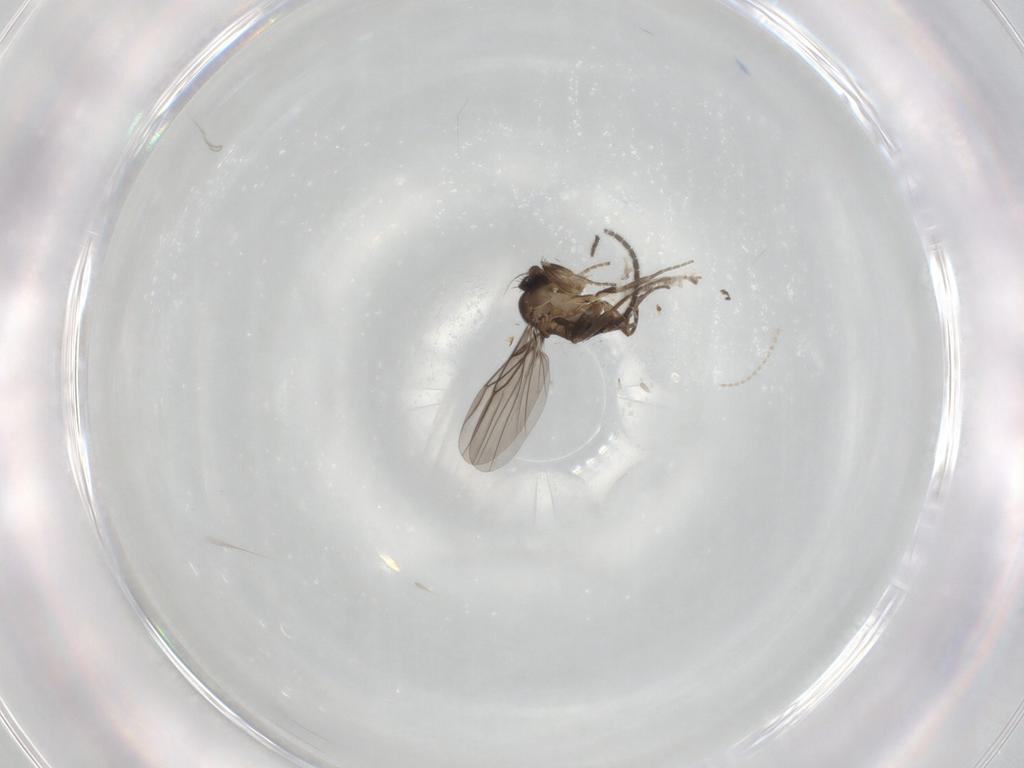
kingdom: Animalia
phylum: Arthropoda
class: Insecta
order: Diptera
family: Sciaridae
